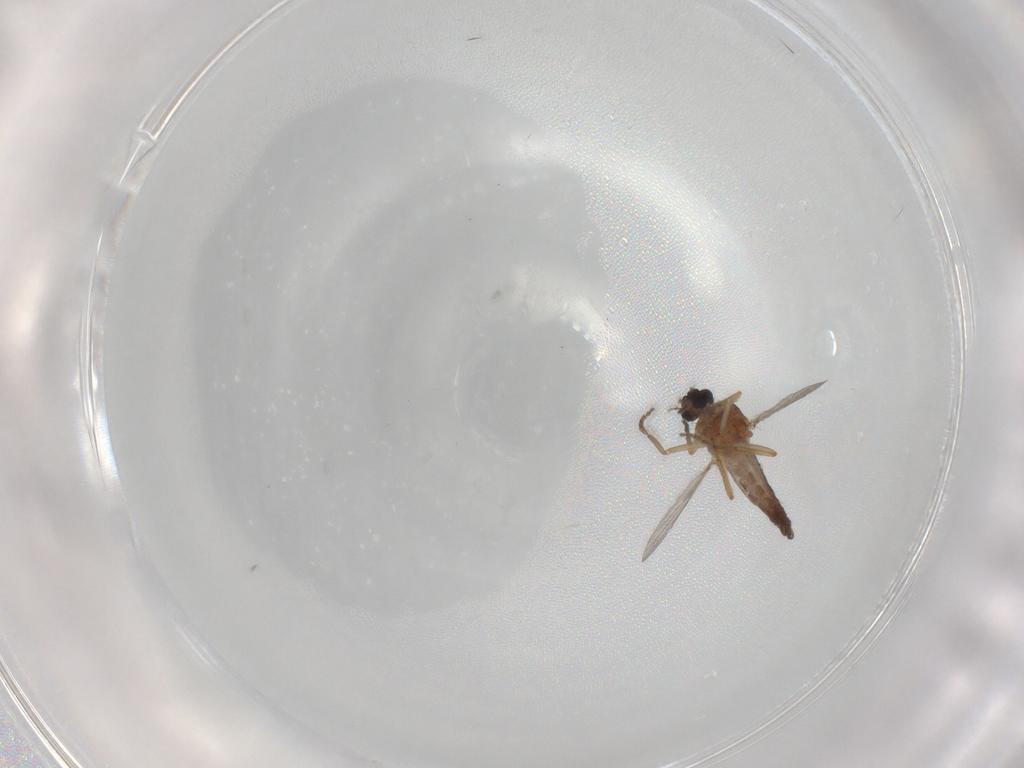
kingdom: Animalia
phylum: Arthropoda
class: Insecta
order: Diptera
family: Ceratopogonidae
